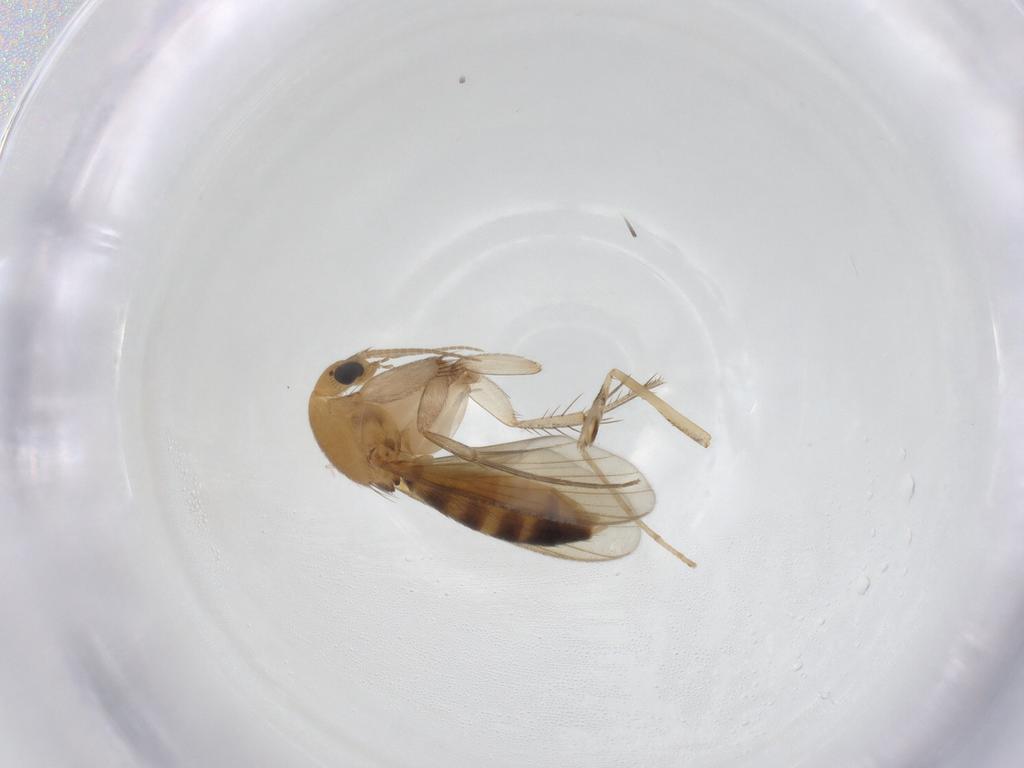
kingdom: Animalia
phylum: Arthropoda
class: Insecta
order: Diptera
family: Mycetophilidae
